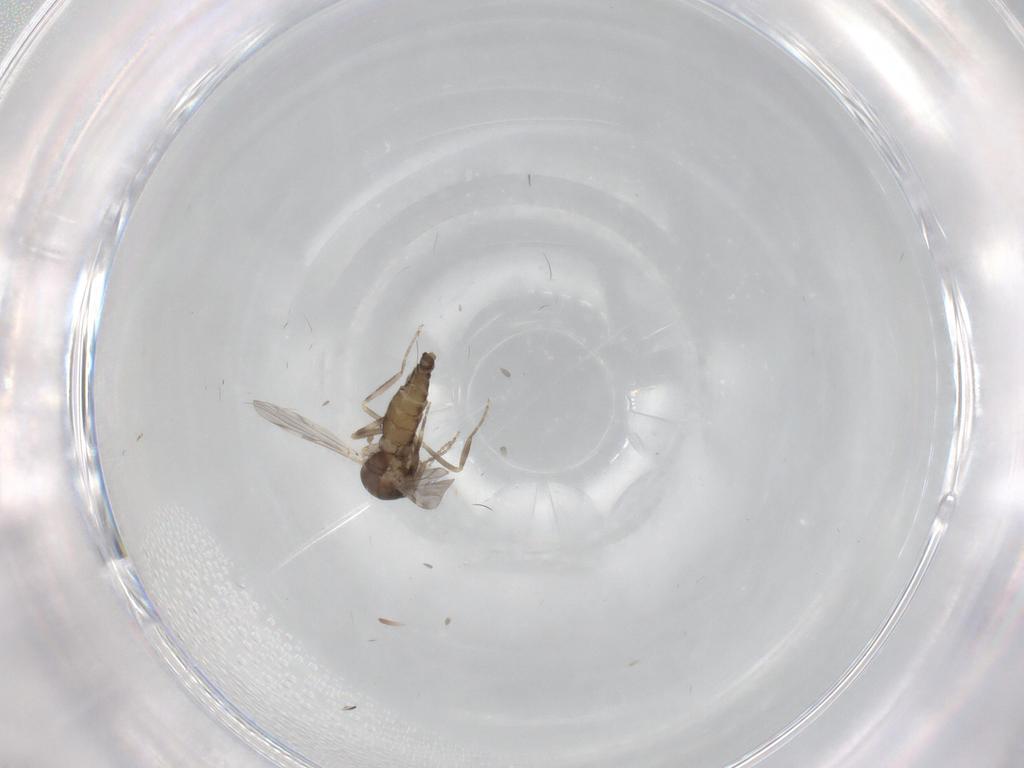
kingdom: Animalia
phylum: Arthropoda
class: Insecta
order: Diptera
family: Ceratopogonidae
